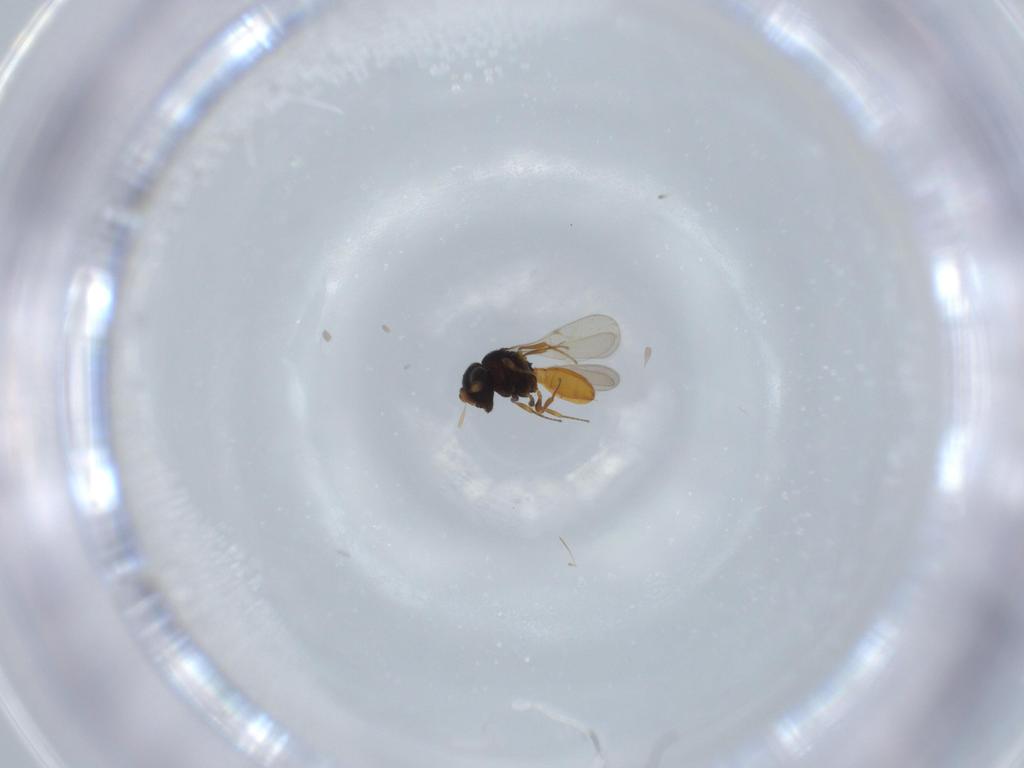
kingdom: Animalia
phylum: Arthropoda
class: Insecta
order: Hymenoptera
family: Scelionidae
